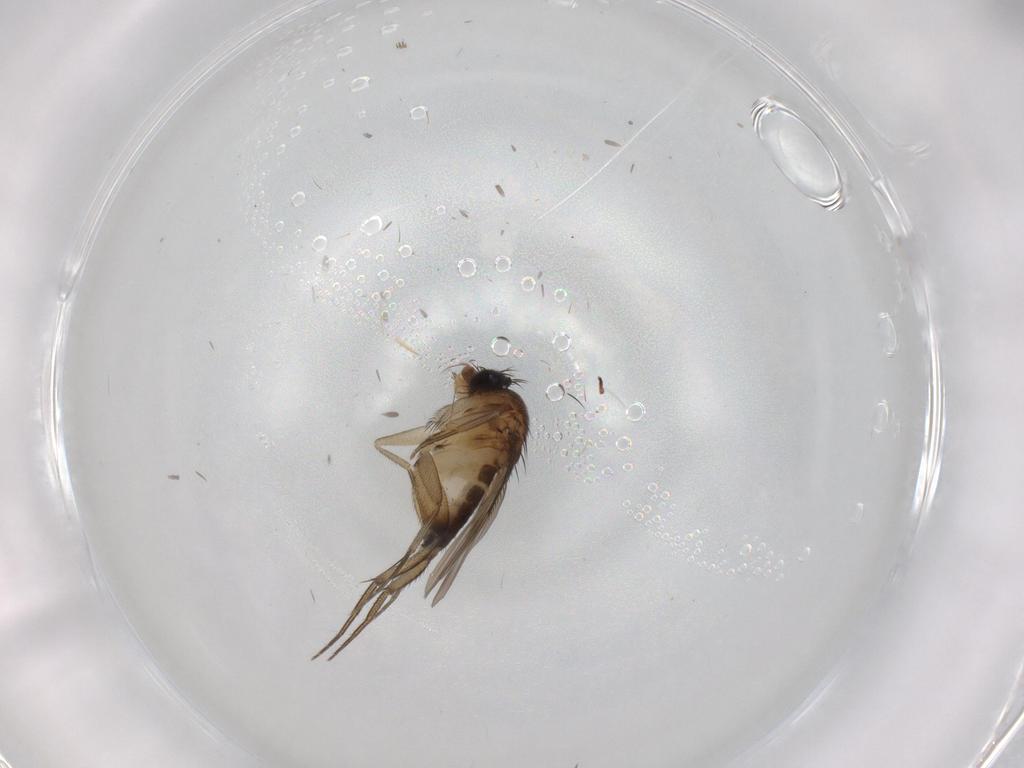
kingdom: Animalia
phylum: Arthropoda
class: Insecta
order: Diptera
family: Phoridae
